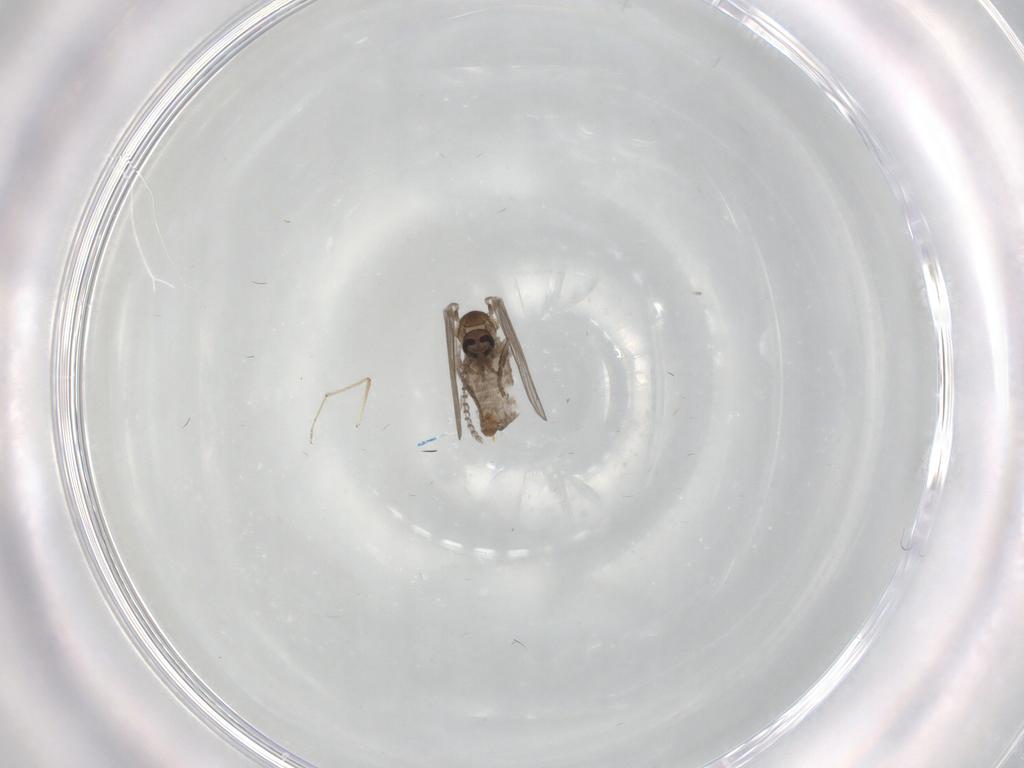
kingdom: Animalia
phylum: Arthropoda
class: Insecta
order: Diptera
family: Psychodidae
